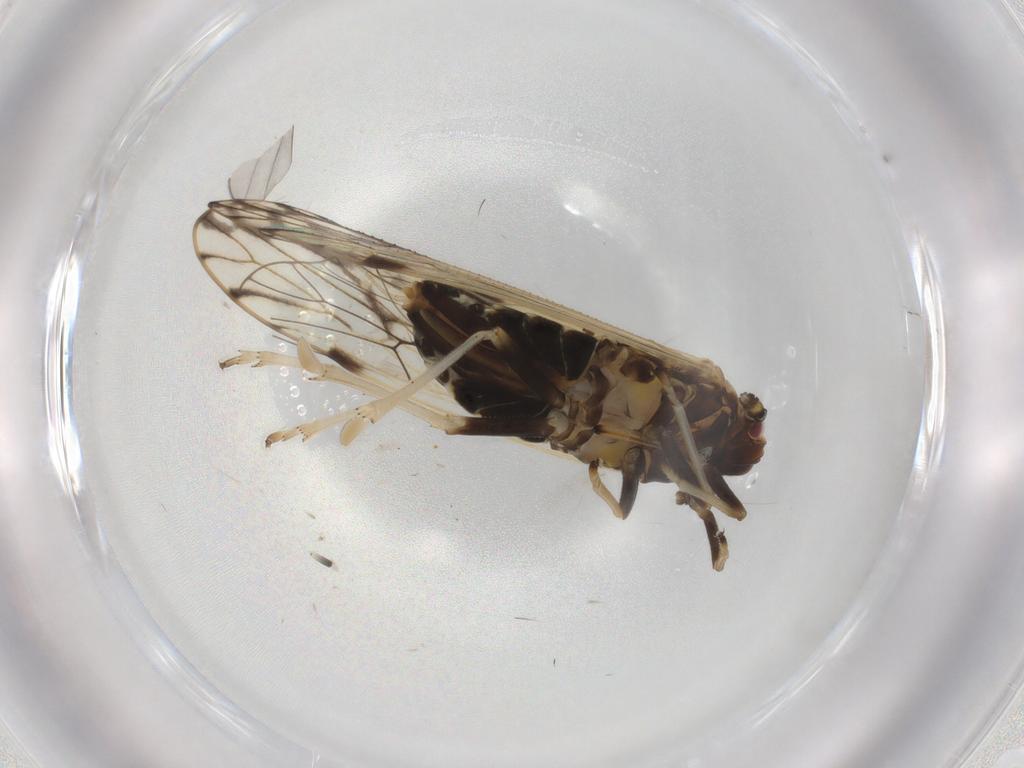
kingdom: Animalia
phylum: Arthropoda
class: Insecta
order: Hemiptera
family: Delphacidae
